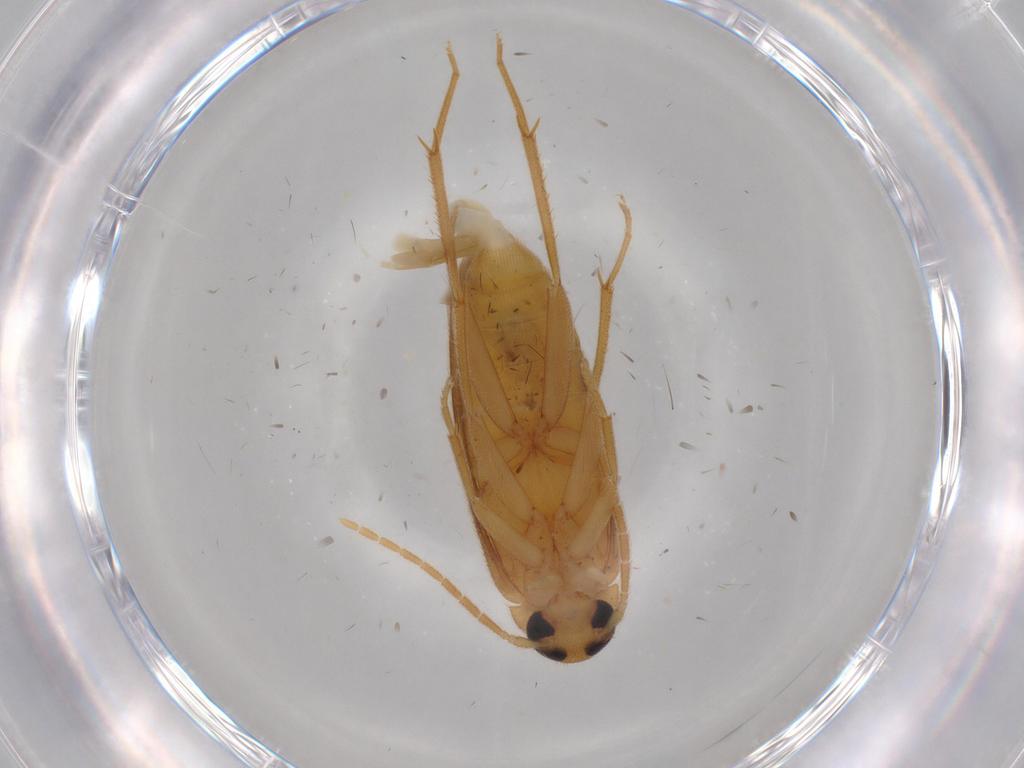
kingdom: Animalia
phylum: Arthropoda
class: Insecta
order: Coleoptera
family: Scraptiidae
